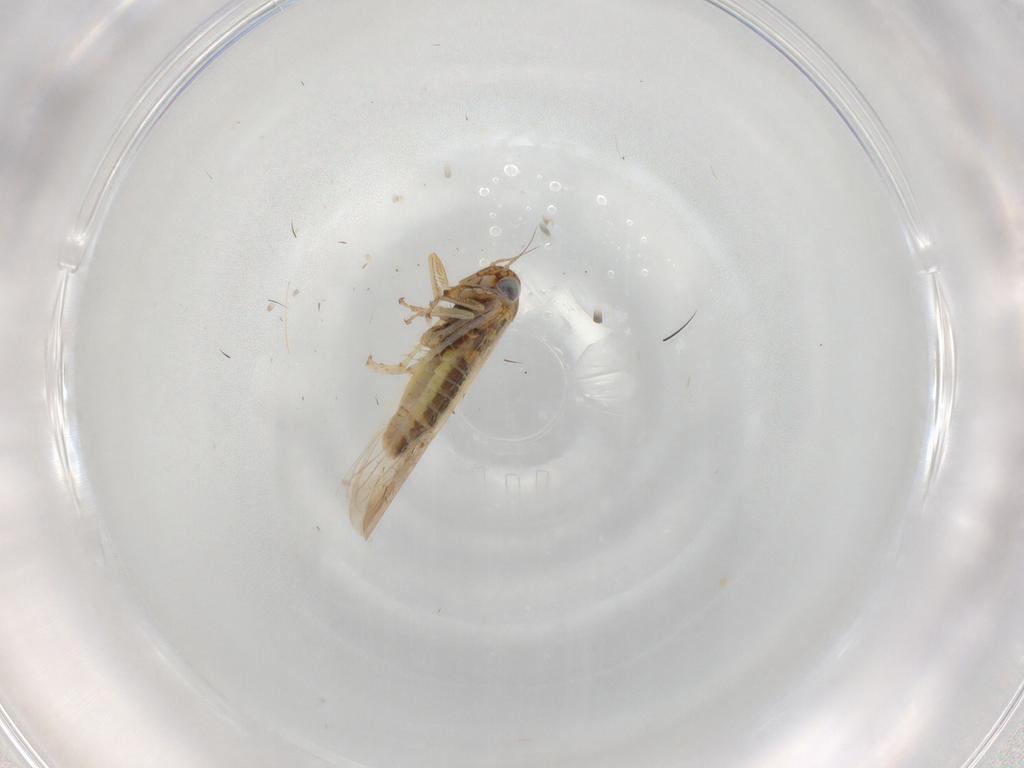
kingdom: Animalia
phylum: Arthropoda
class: Insecta
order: Hemiptera
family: Cicadellidae
